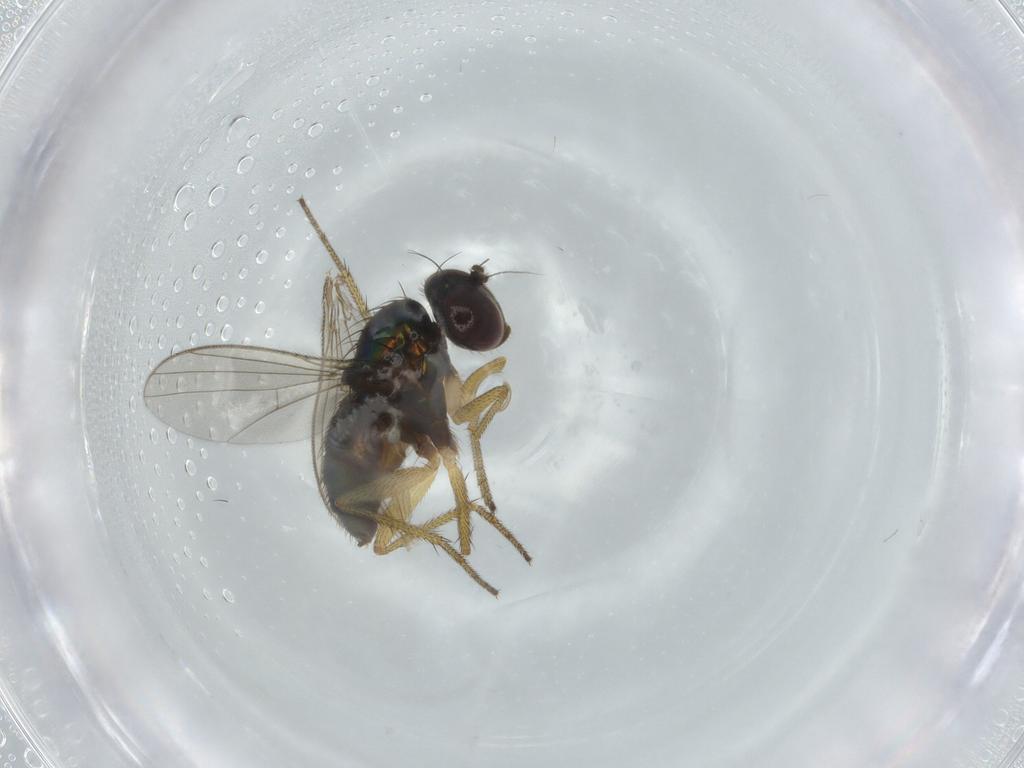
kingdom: Animalia
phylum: Arthropoda
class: Insecta
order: Diptera
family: Dolichopodidae
